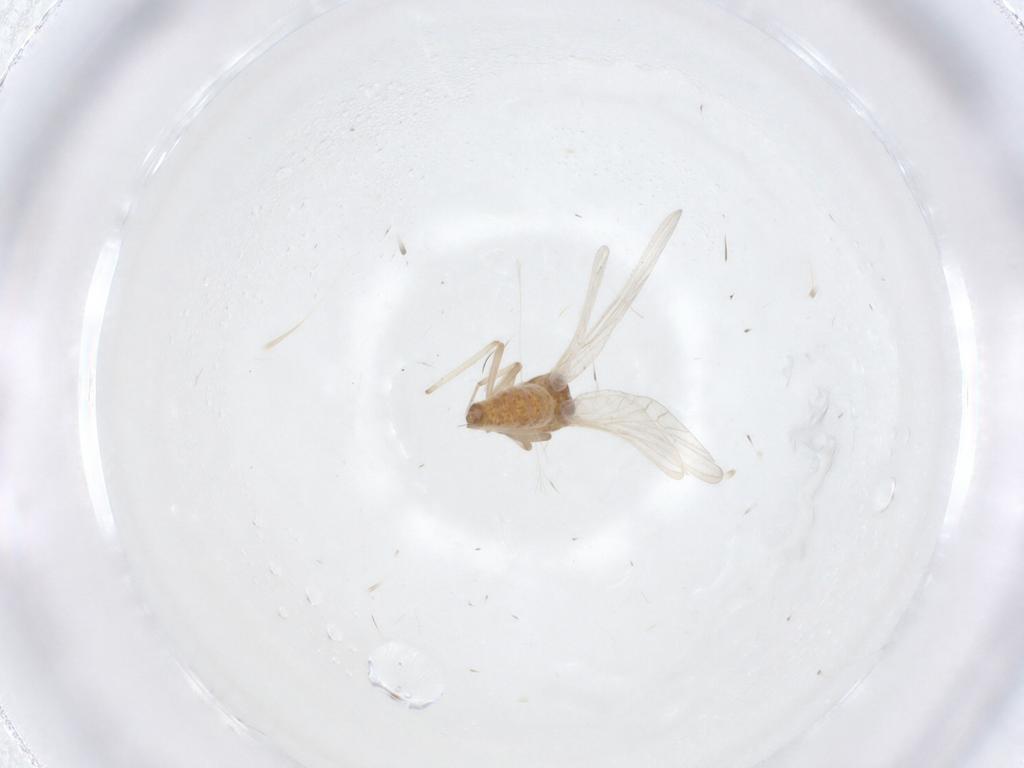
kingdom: Animalia
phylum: Arthropoda
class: Insecta
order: Neuroptera
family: Coniopterygidae
